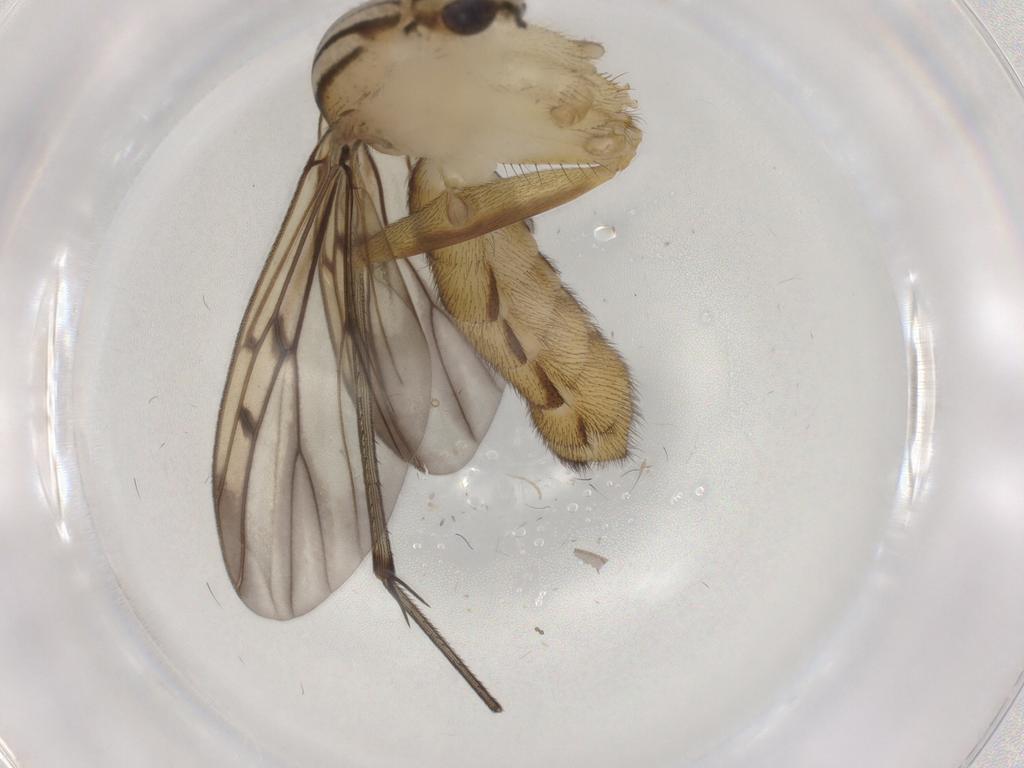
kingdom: Animalia
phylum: Arthropoda
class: Insecta
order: Diptera
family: Mycetophilidae
